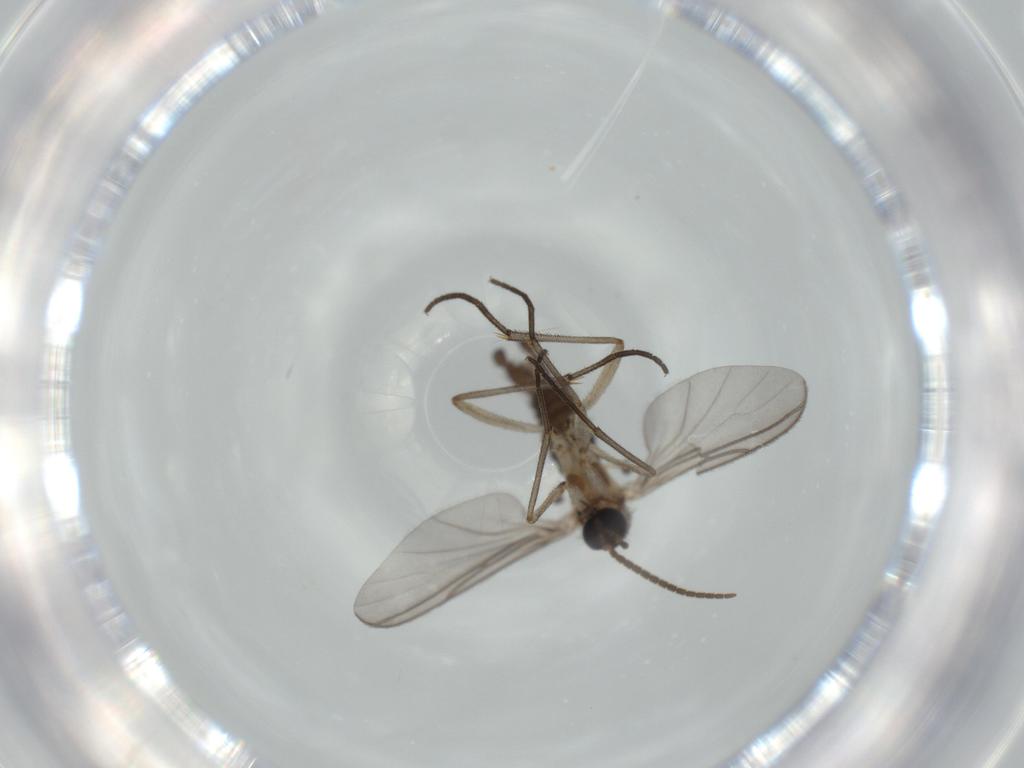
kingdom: Animalia
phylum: Arthropoda
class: Insecta
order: Diptera
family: Sciaridae
